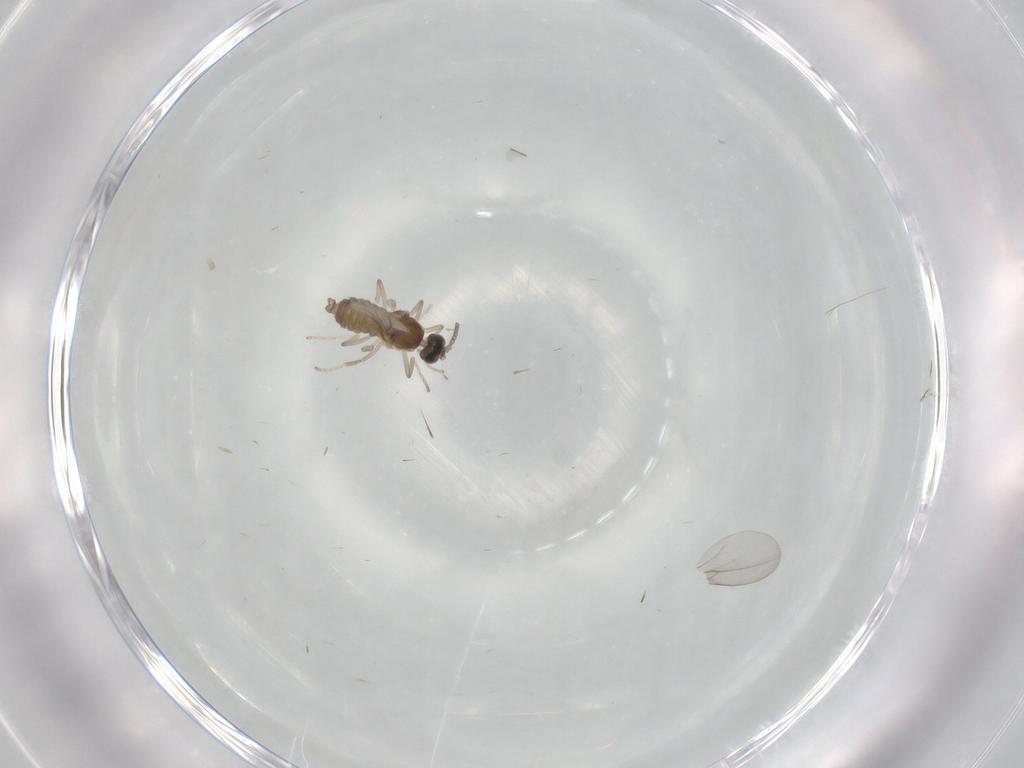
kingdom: Animalia
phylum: Arthropoda
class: Insecta
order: Diptera
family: Cecidomyiidae
